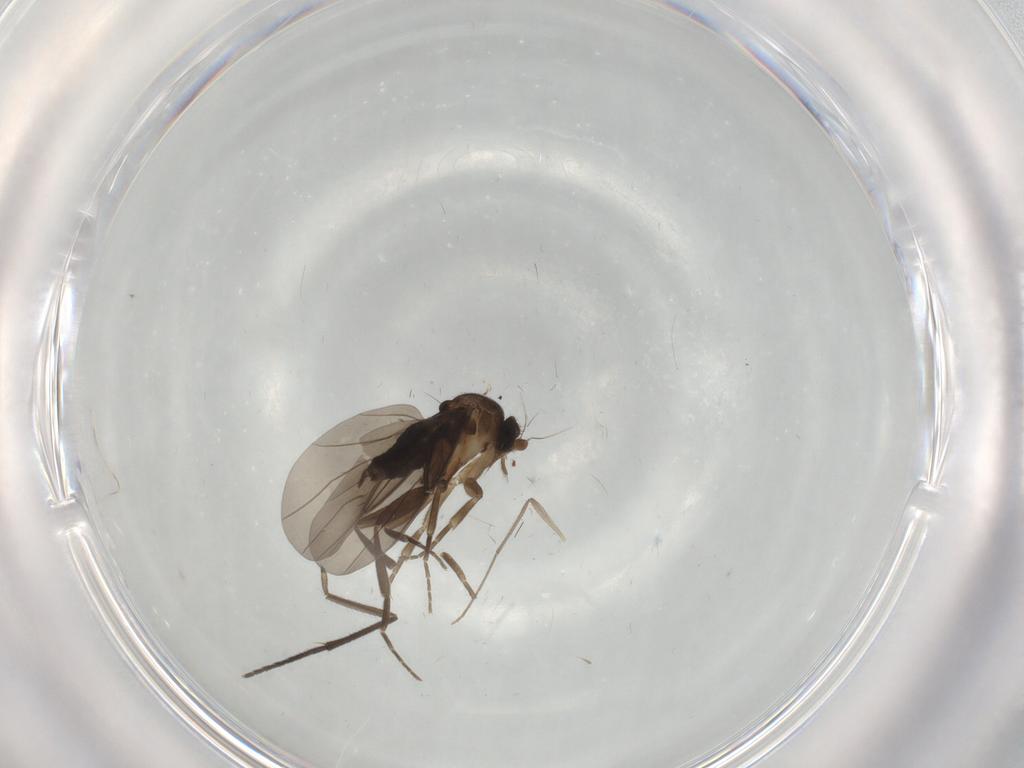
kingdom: Animalia
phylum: Arthropoda
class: Insecta
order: Diptera
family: Phoridae
